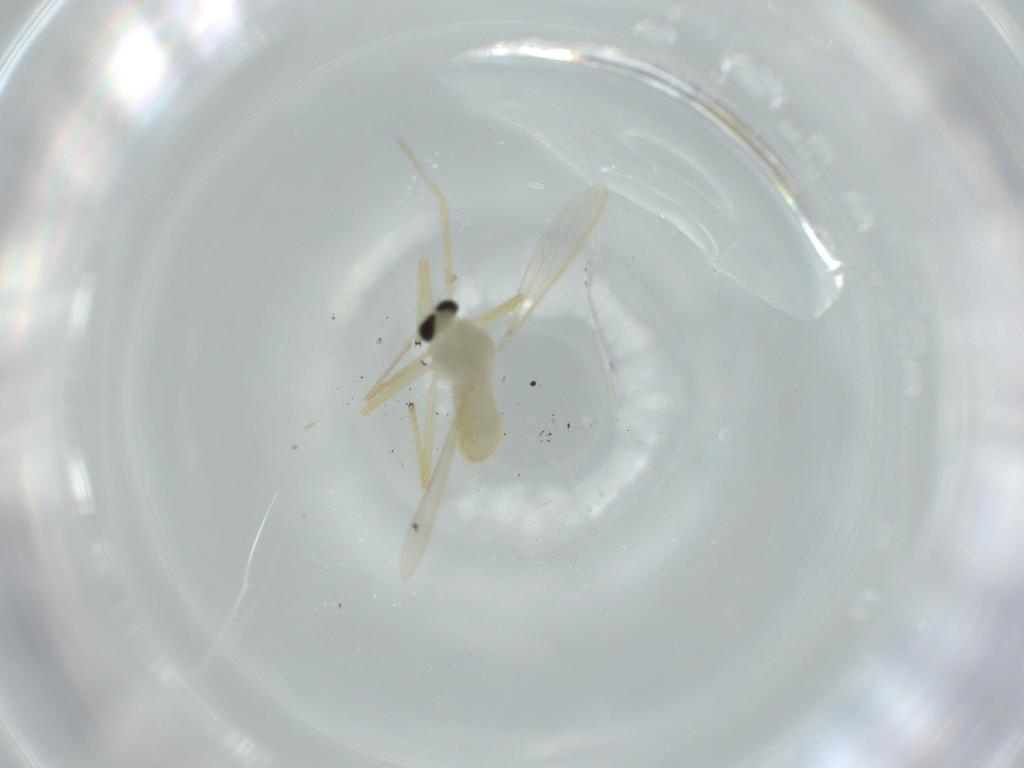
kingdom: Animalia
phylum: Arthropoda
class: Insecta
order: Diptera
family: Chironomidae
